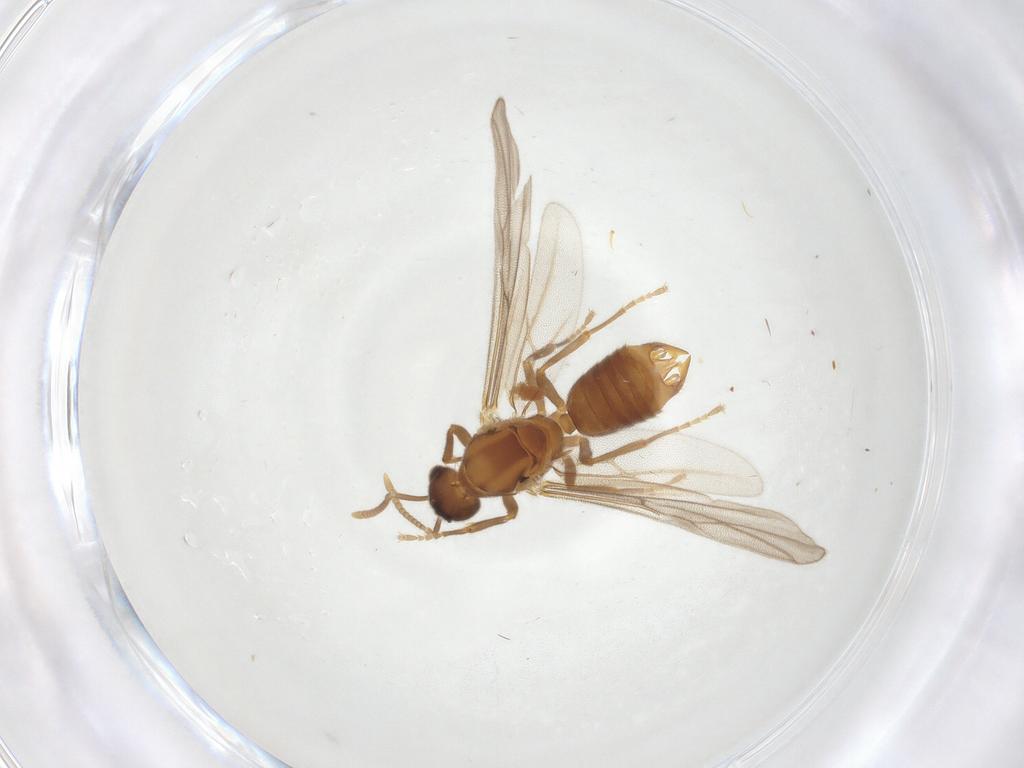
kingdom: Animalia
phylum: Arthropoda
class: Insecta
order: Hymenoptera
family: Formicidae
